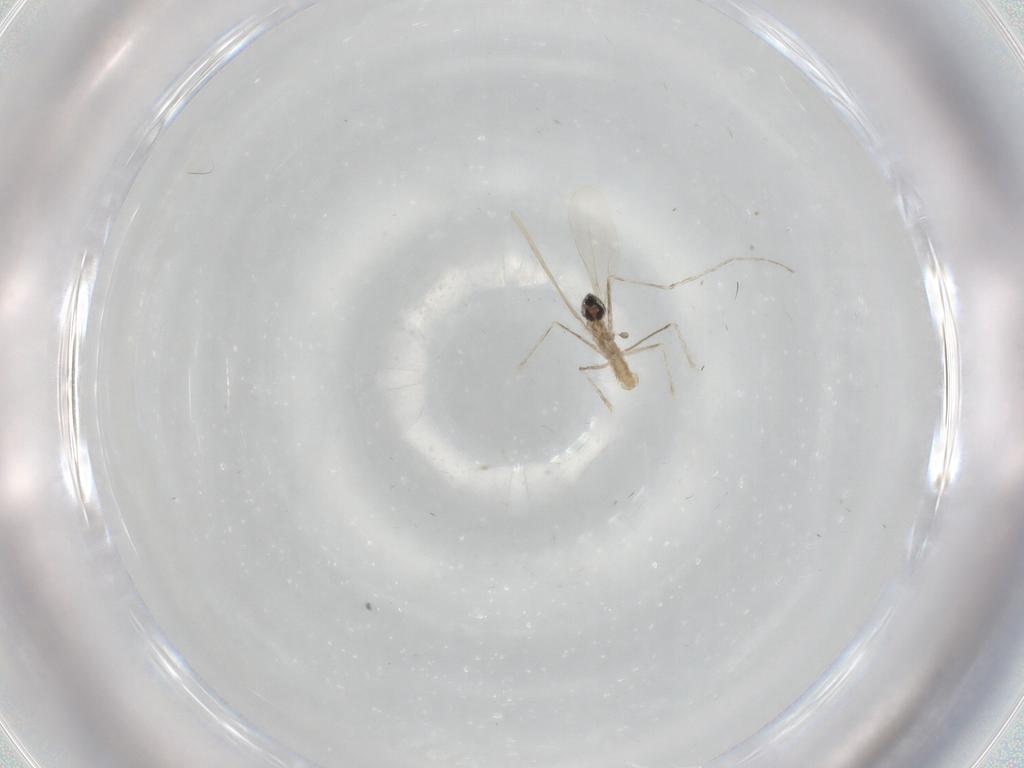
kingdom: Animalia
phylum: Arthropoda
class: Insecta
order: Diptera
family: Cecidomyiidae
